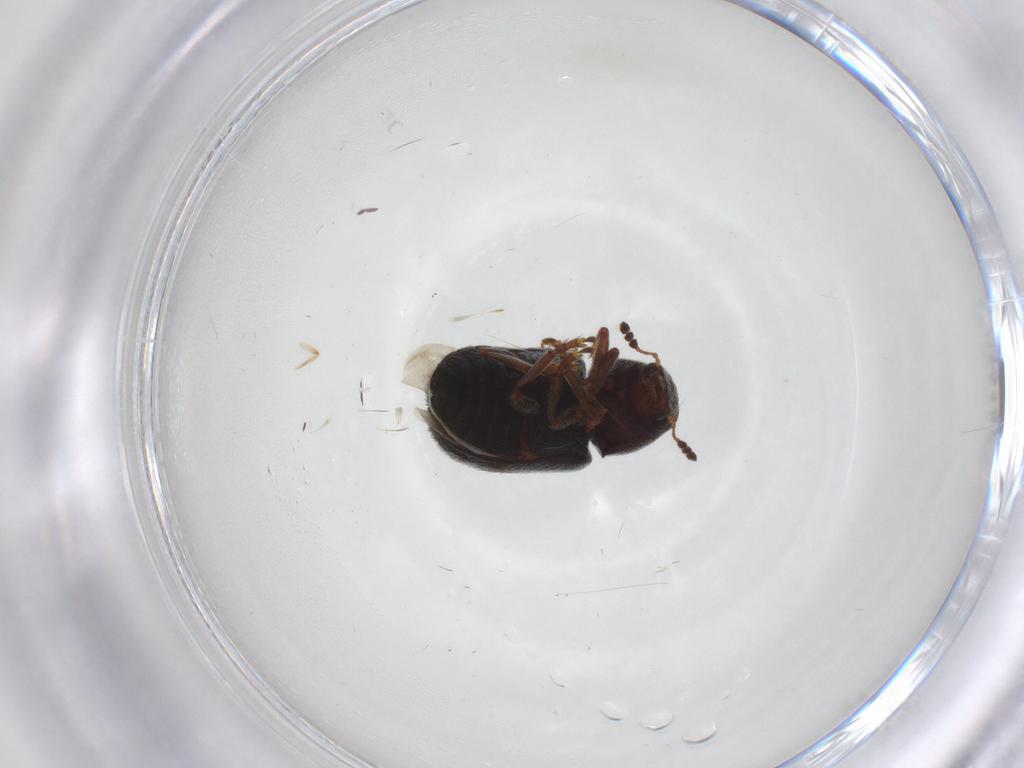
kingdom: Animalia
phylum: Arthropoda
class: Insecta
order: Coleoptera
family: Anthribidae
